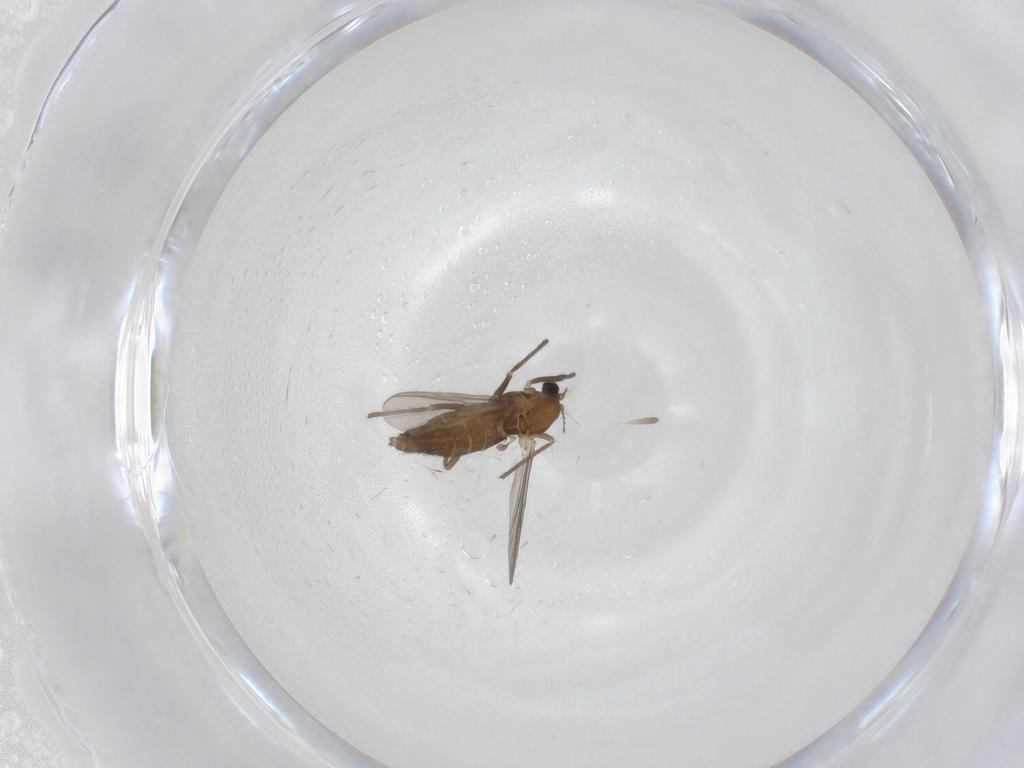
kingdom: Animalia
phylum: Arthropoda
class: Insecta
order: Diptera
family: Chironomidae
